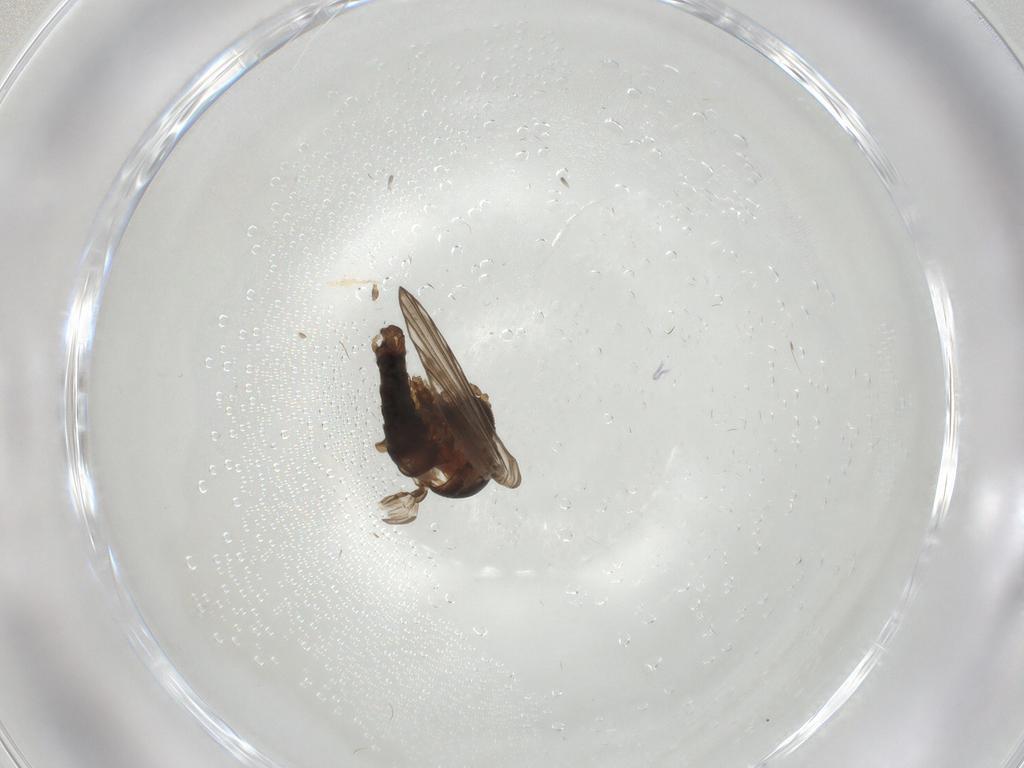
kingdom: Animalia
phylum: Arthropoda
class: Insecta
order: Diptera
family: Psychodidae
